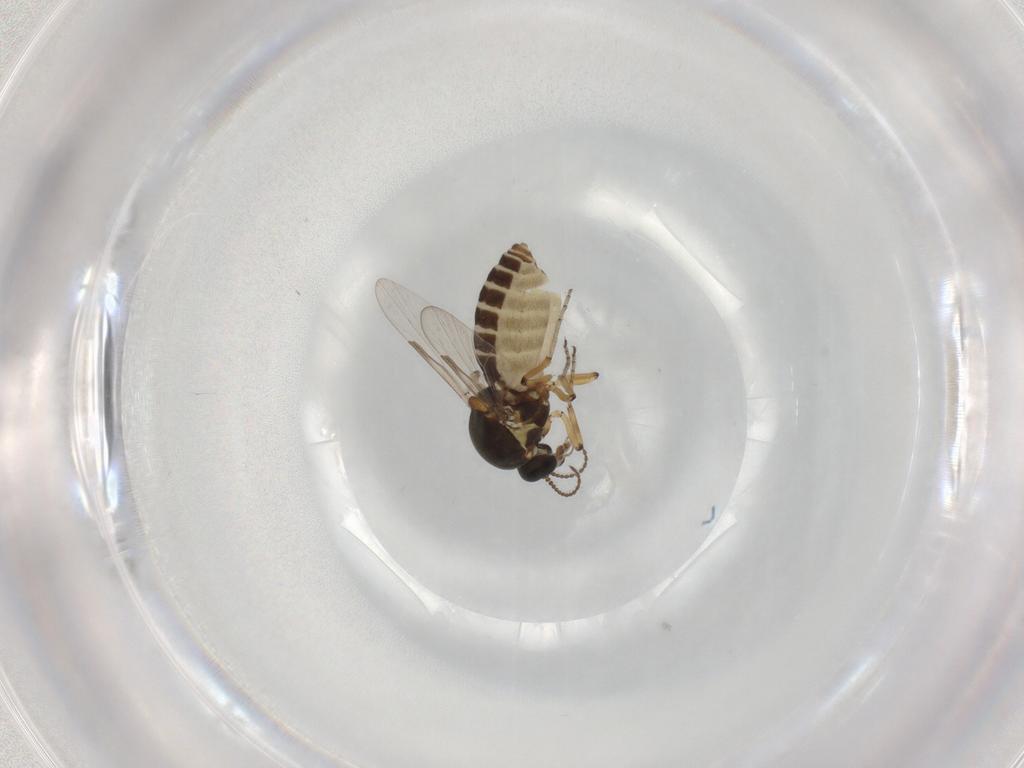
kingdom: Animalia
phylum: Arthropoda
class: Insecta
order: Diptera
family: Ceratopogonidae
